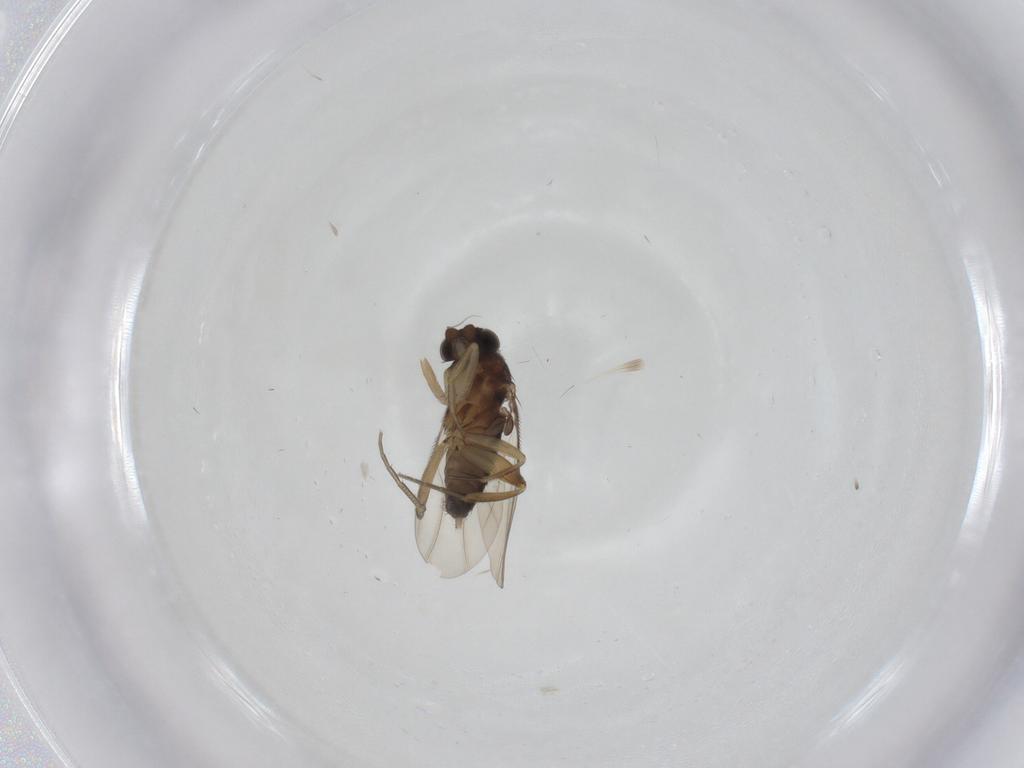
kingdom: Animalia
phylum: Arthropoda
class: Insecta
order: Diptera
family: Phoridae
